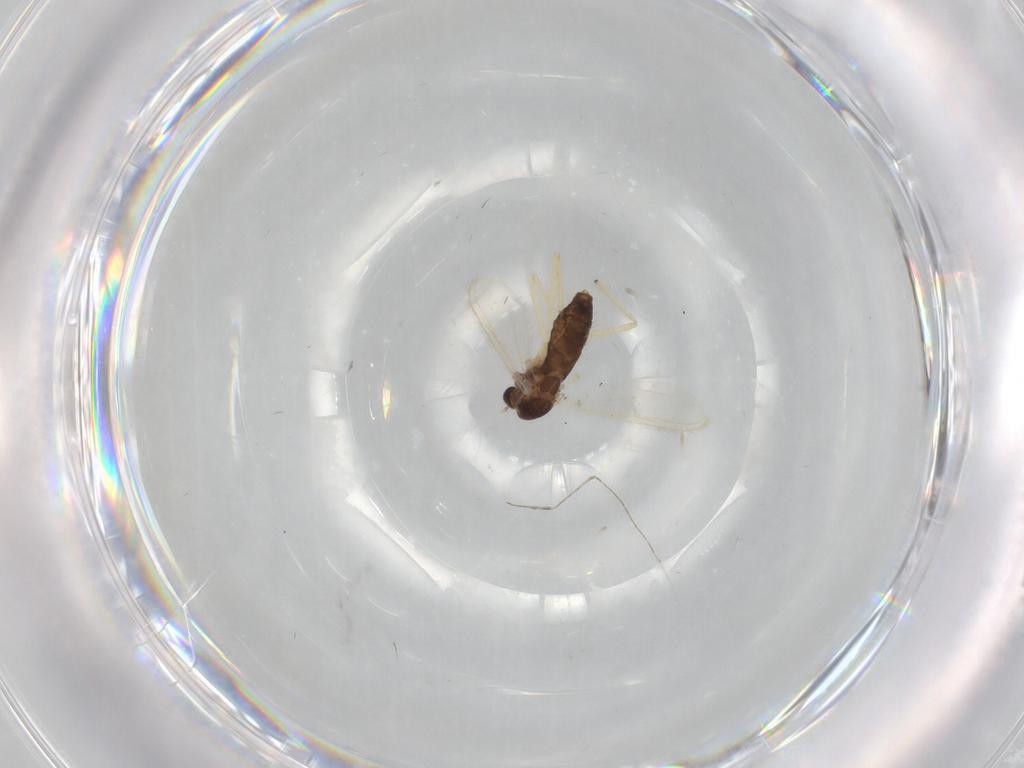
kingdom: Animalia
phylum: Arthropoda
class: Insecta
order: Diptera
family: Chironomidae
